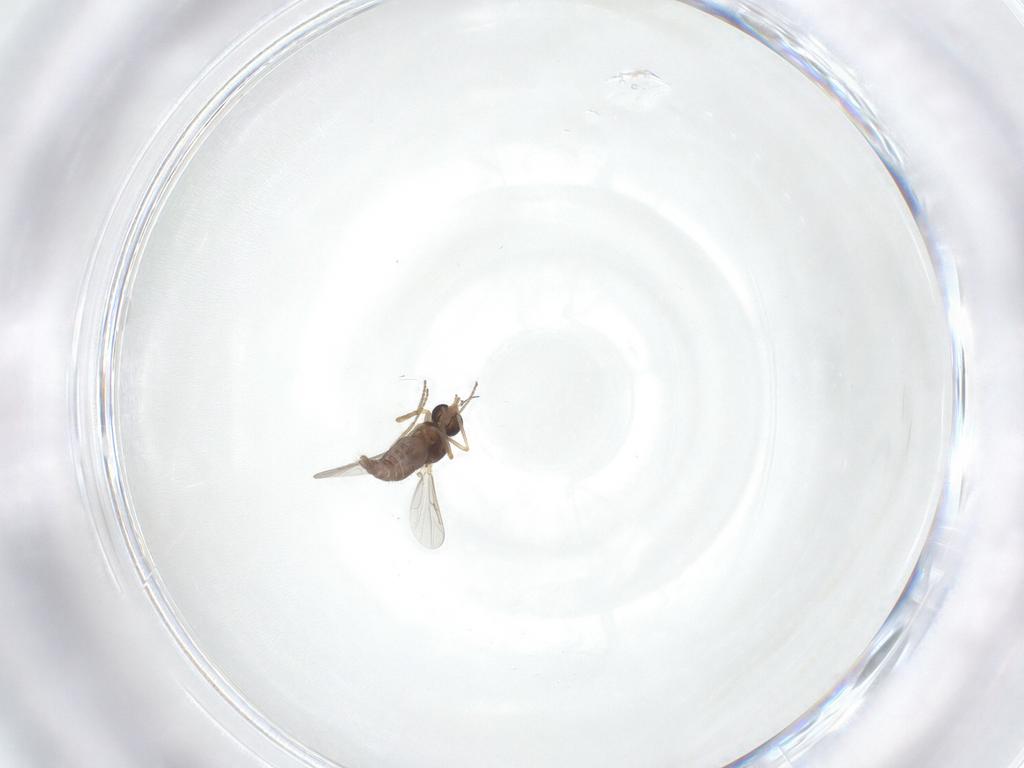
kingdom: Animalia
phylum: Arthropoda
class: Insecta
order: Diptera
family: Ceratopogonidae
